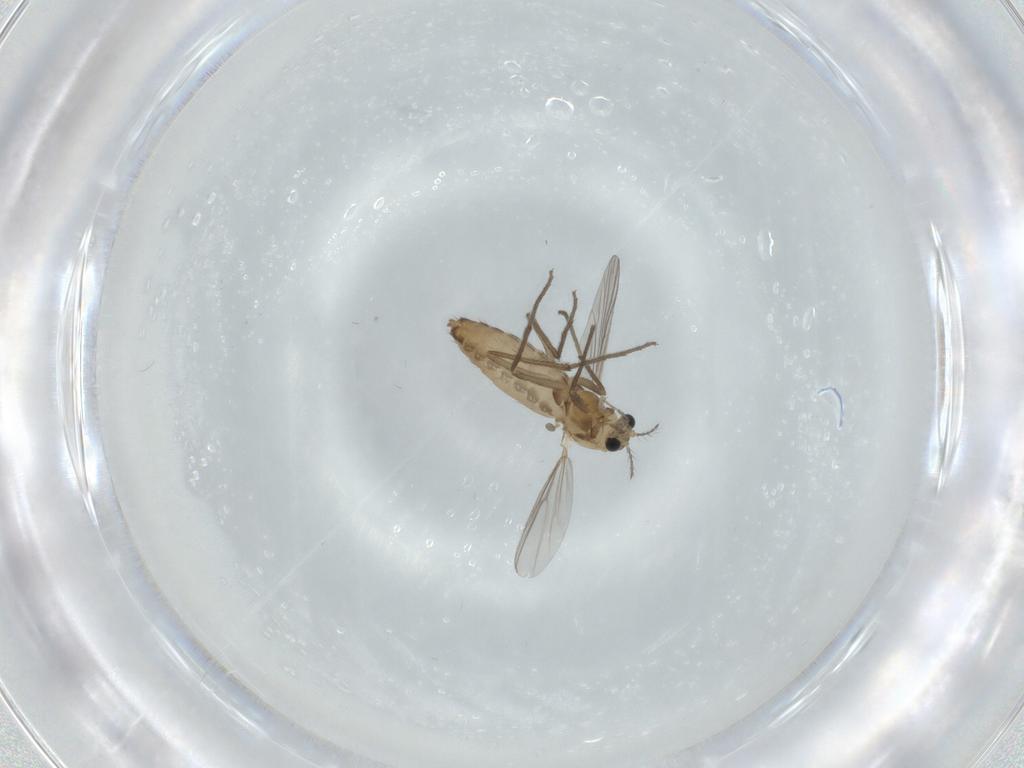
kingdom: Animalia
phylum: Arthropoda
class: Insecta
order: Diptera
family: Chironomidae
